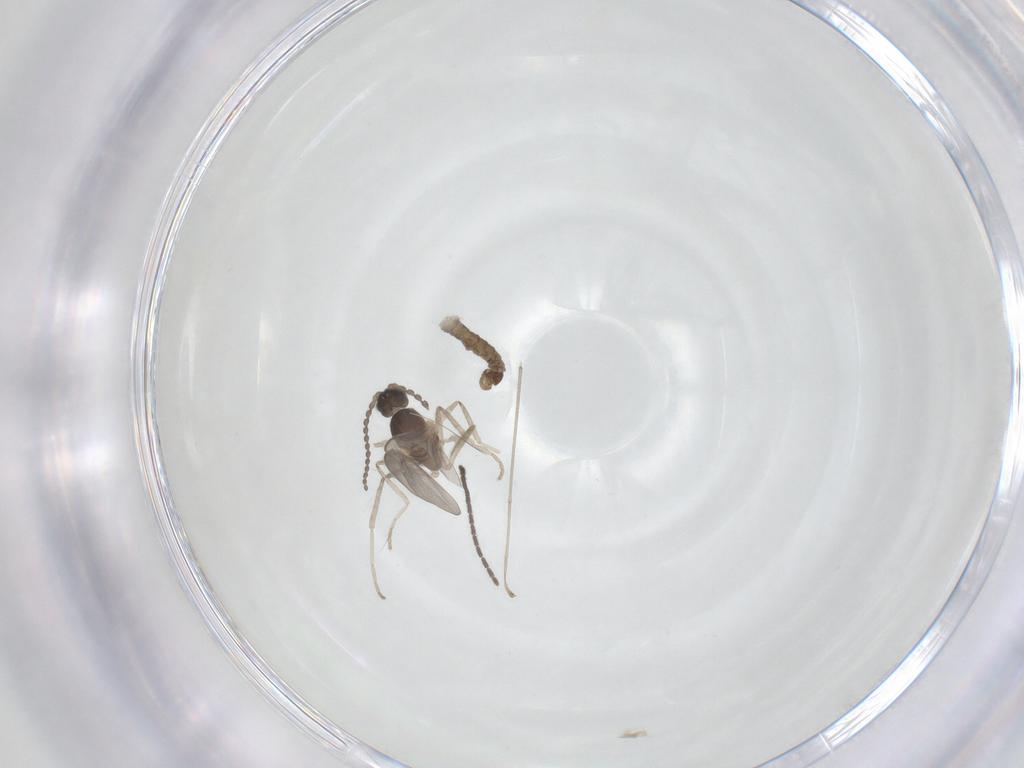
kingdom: Animalia
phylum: Arthropoda
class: Insecta
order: Diptera
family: Cecidomyiidae
